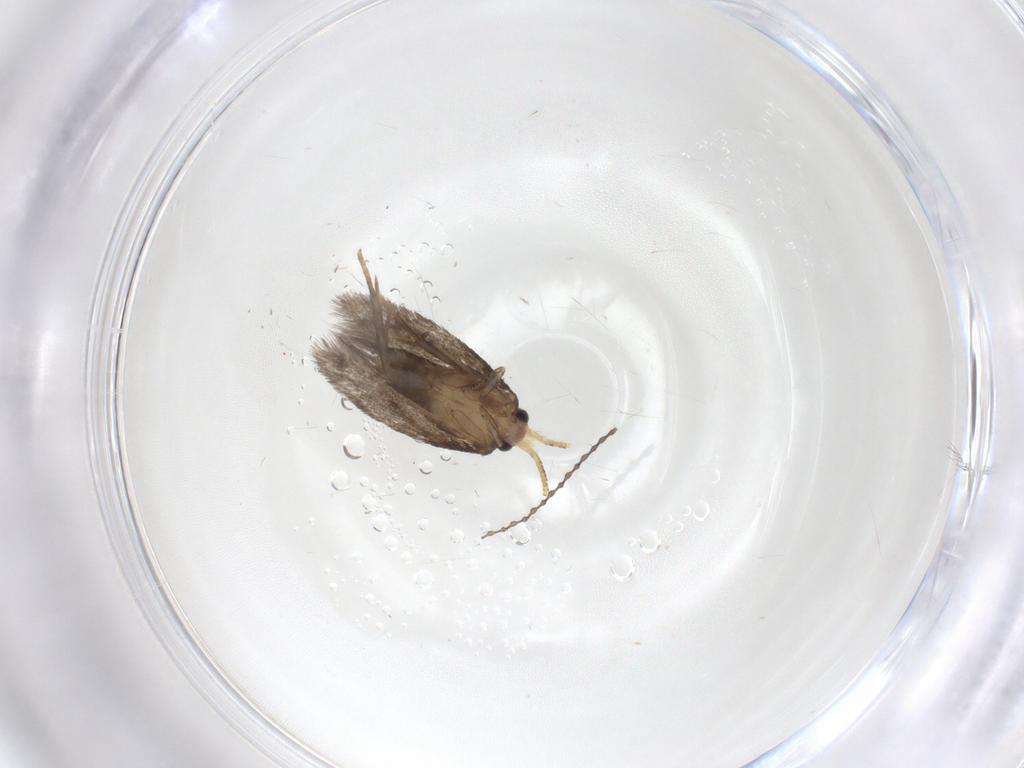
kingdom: Animalia
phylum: Arthropoda
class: Insecta
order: Lepidoptera
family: Nepticulidae
